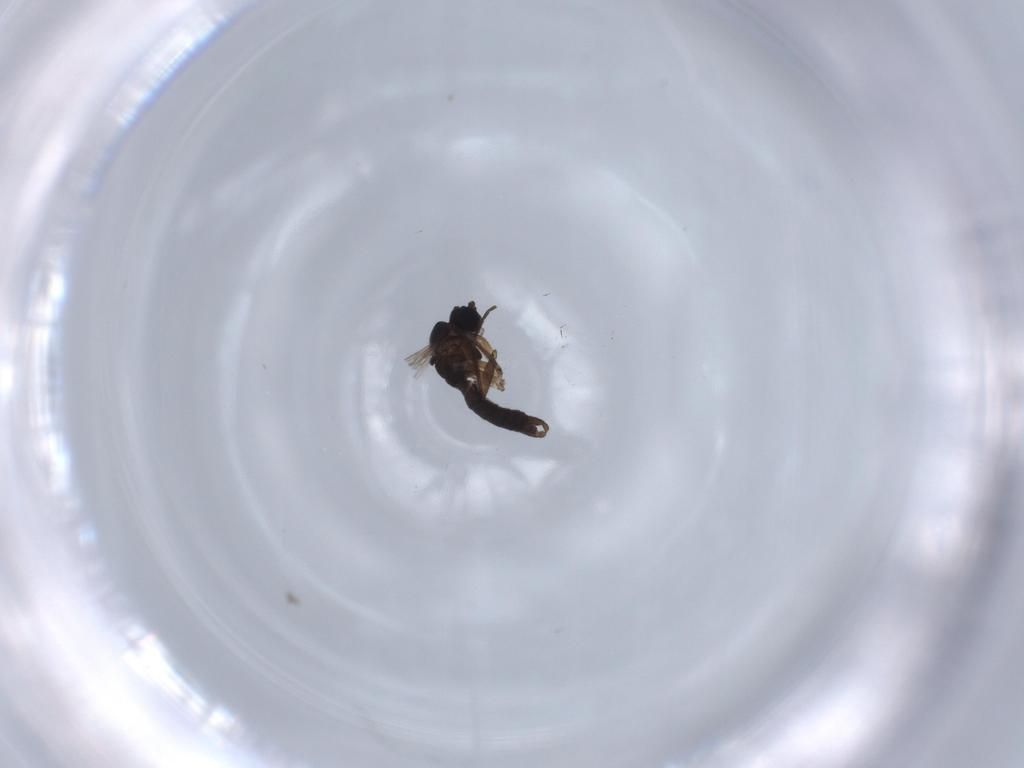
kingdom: Animalia
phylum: Arthropoda
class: Insecta
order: Diptera
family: Sciaridae
